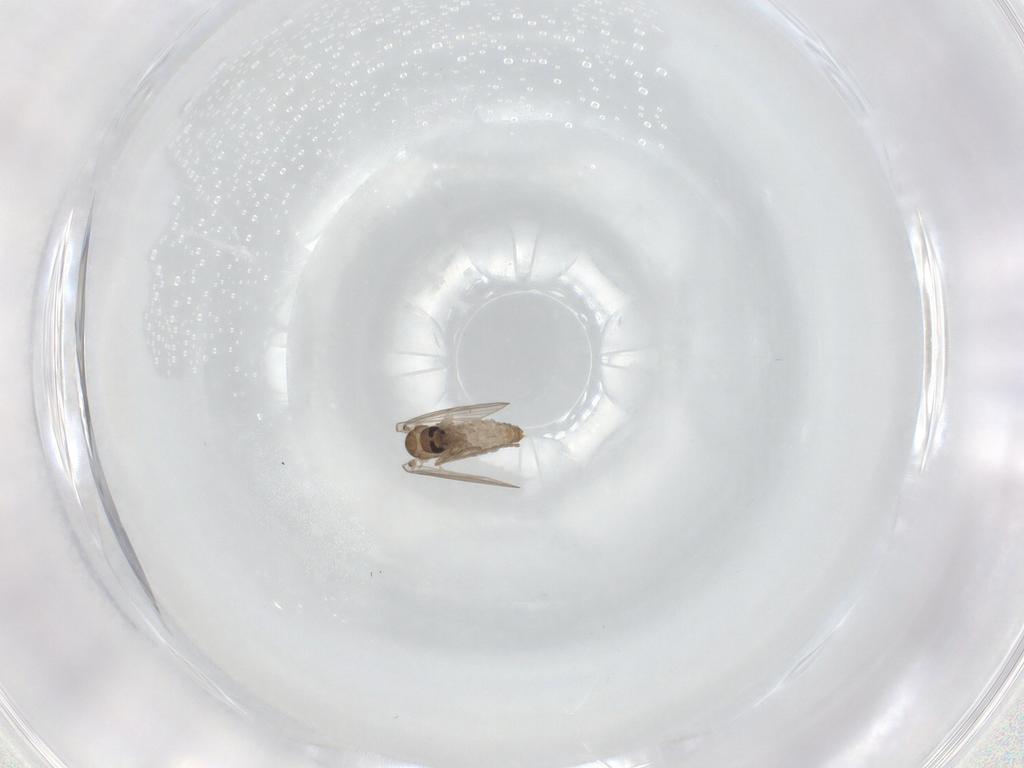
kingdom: Animalia
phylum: Arthropoda
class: Insecta
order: Diptera
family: Psychodidae
